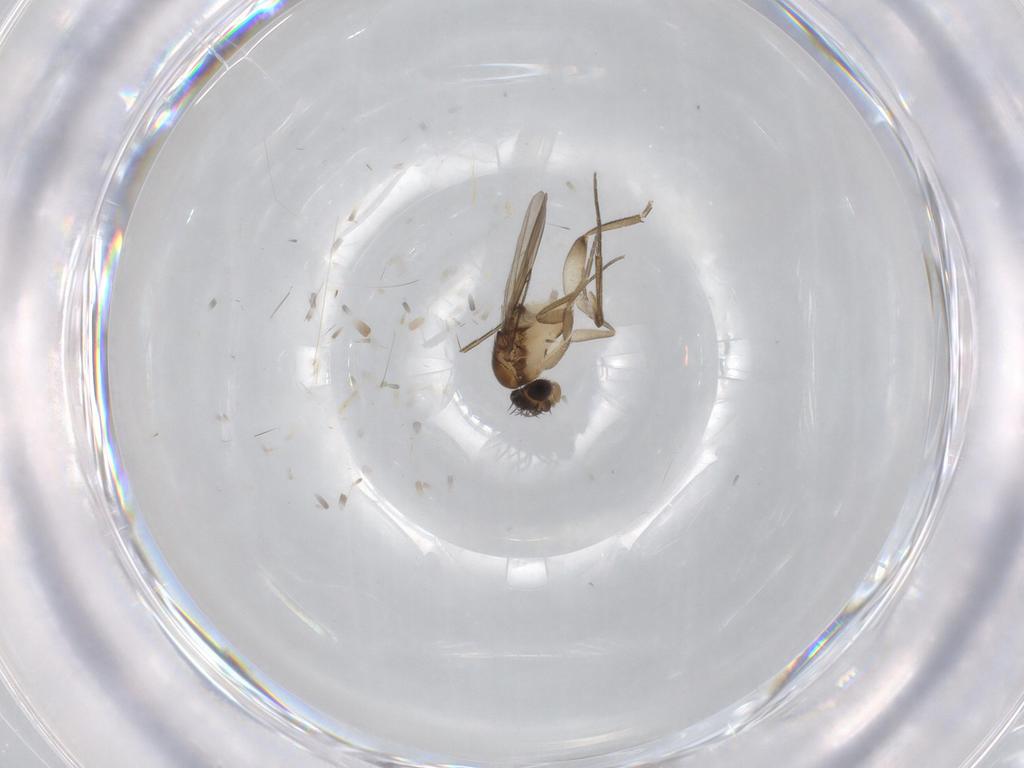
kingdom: Animalia
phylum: Arthropoda
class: Insecta
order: Diptera
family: Phoridae
